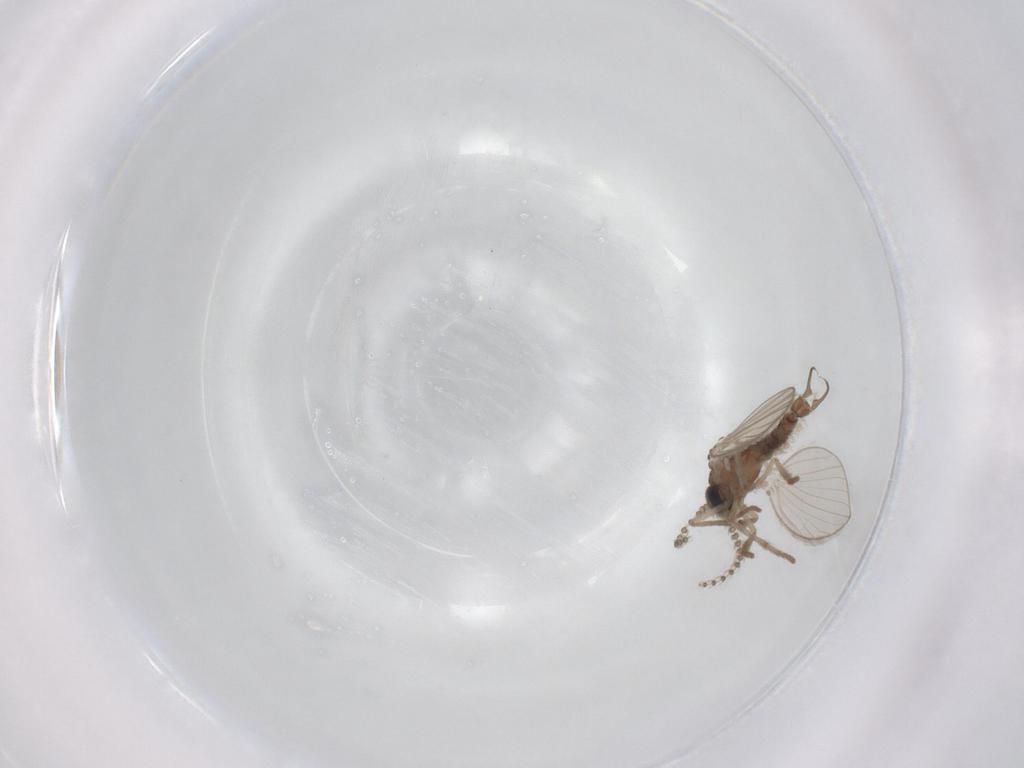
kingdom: Animalia
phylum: Arthropoda
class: Insecta
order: Diptera
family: Psychodidae
